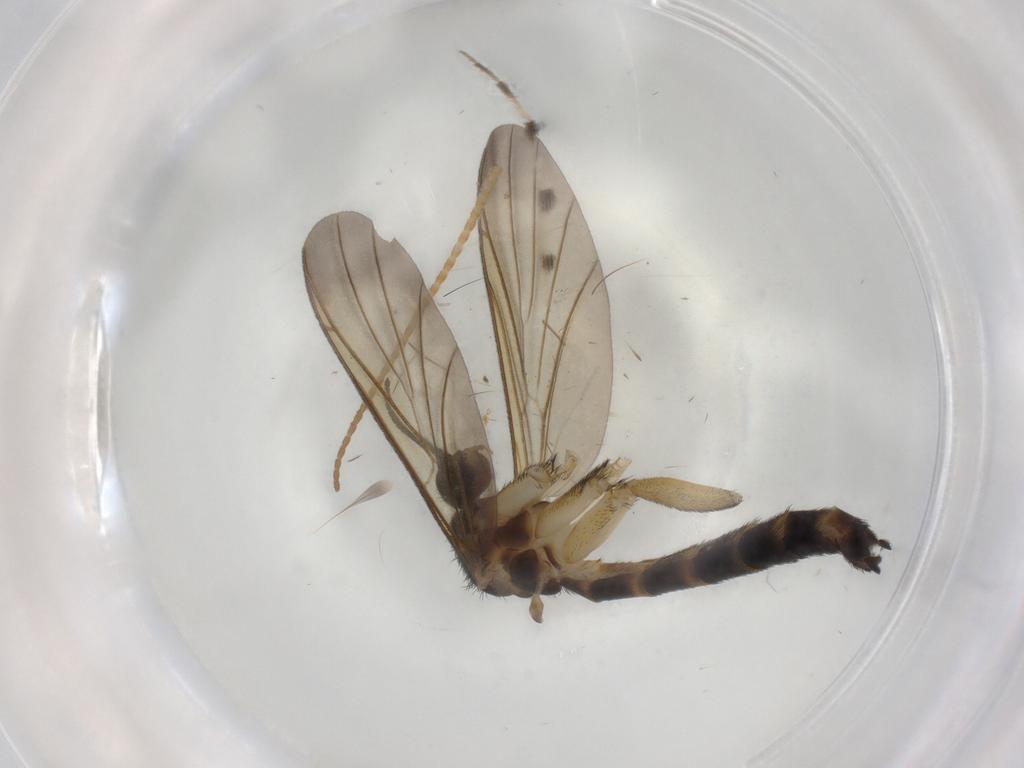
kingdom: Animalia
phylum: Arthropoda
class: Insecta
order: Diptera
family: Keroplatidae
